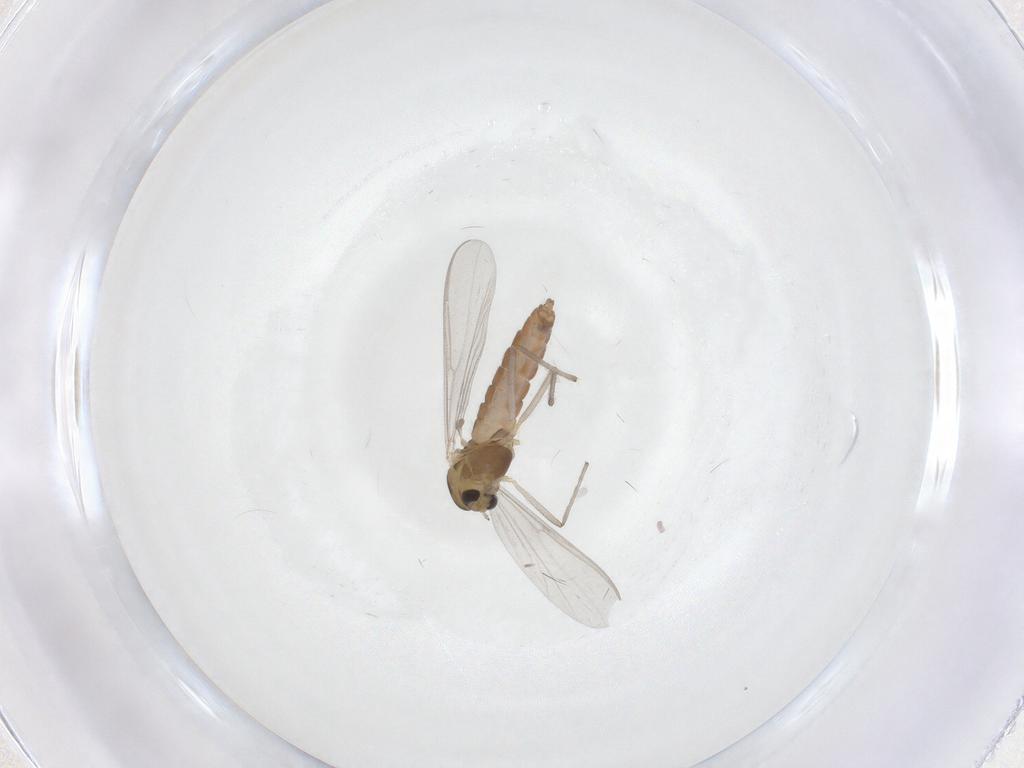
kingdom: Animalia
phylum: Arthropoda
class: Insecta
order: Diptera
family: Chironomidae
